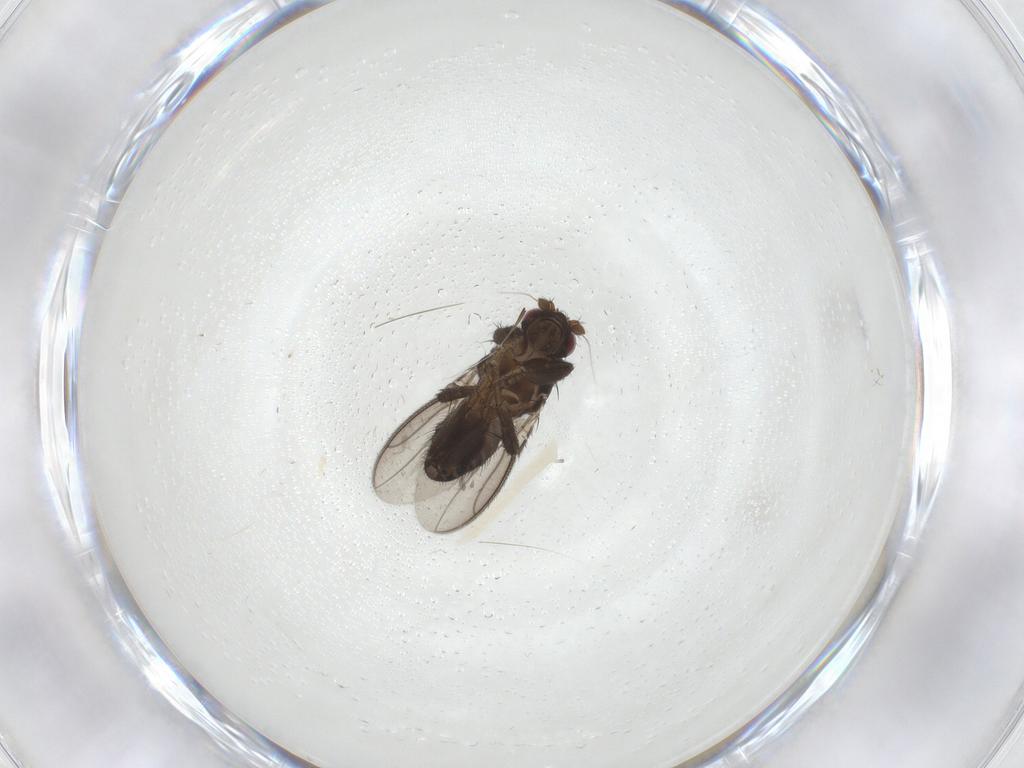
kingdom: Animalia
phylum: Arthropoda
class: Insecta
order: Diptera
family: Sphaeroceridae
